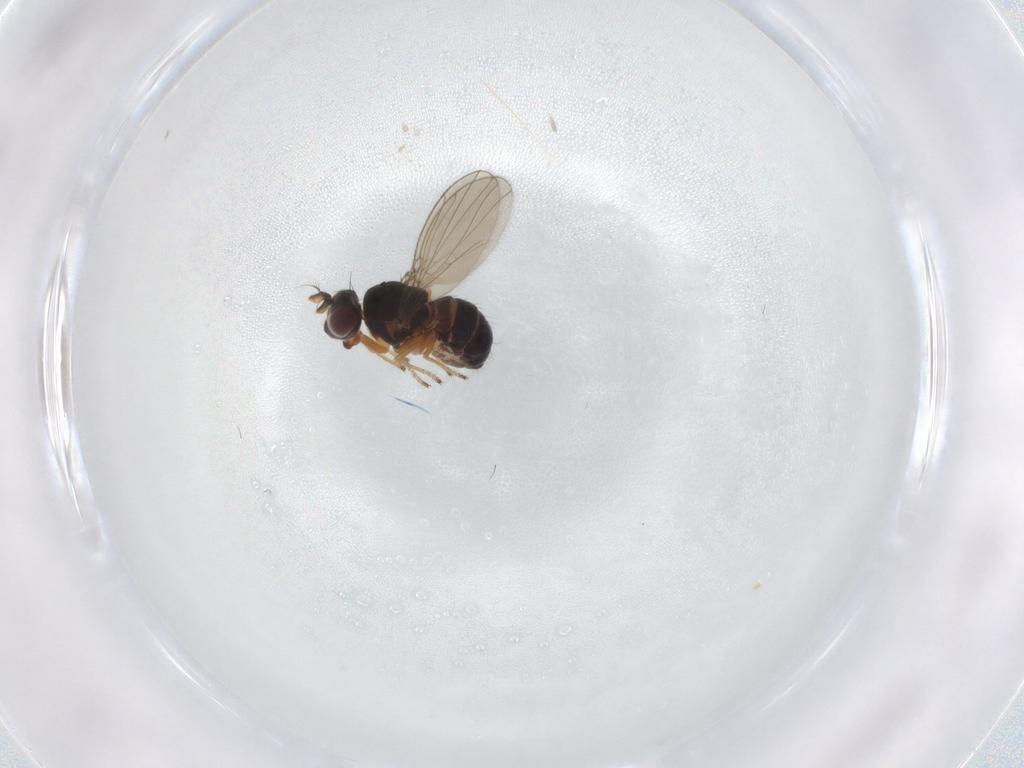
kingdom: Animalia
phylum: Arthropoda
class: Insecta
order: Diptera
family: Ephydridae
